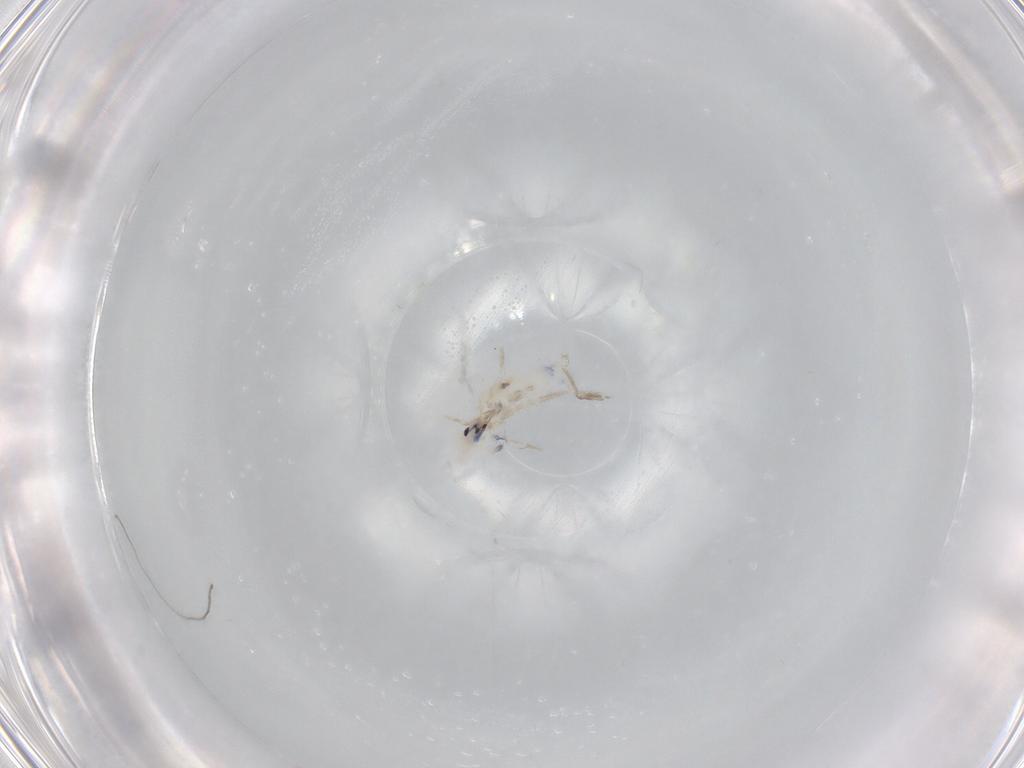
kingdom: Animalia
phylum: Arthropoda
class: Collembola
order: Entomobryomorpha
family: Entomobryidae
